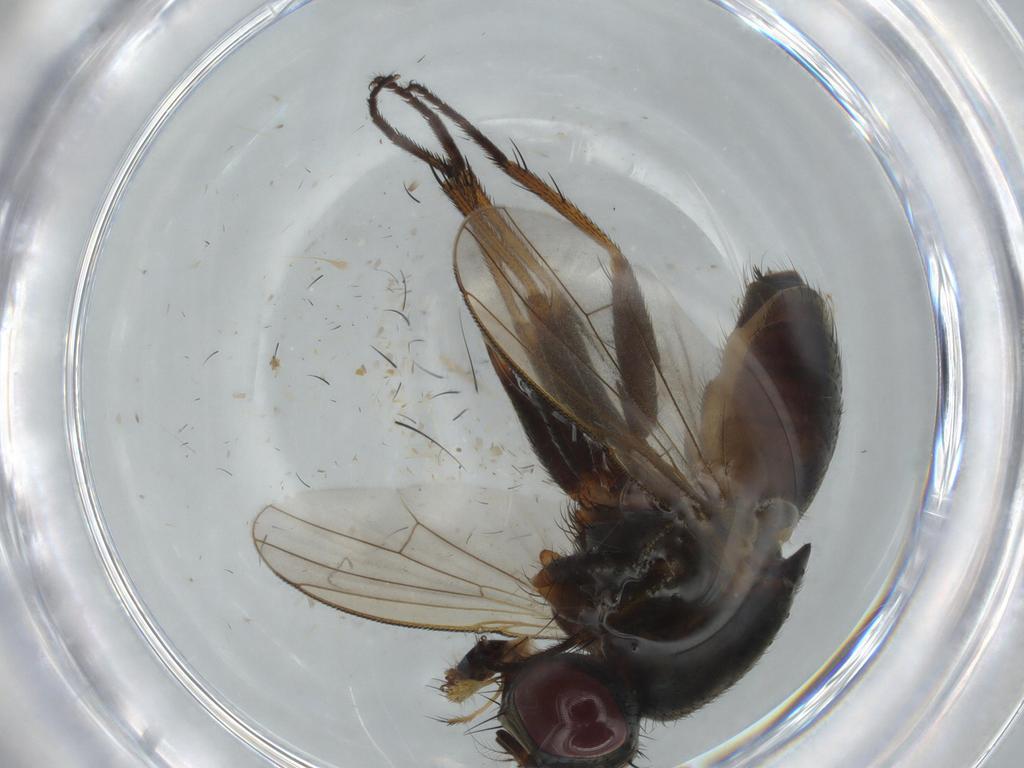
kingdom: Animalia
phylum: Arthropoda
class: Insecta
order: Diptera
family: Muscidae
